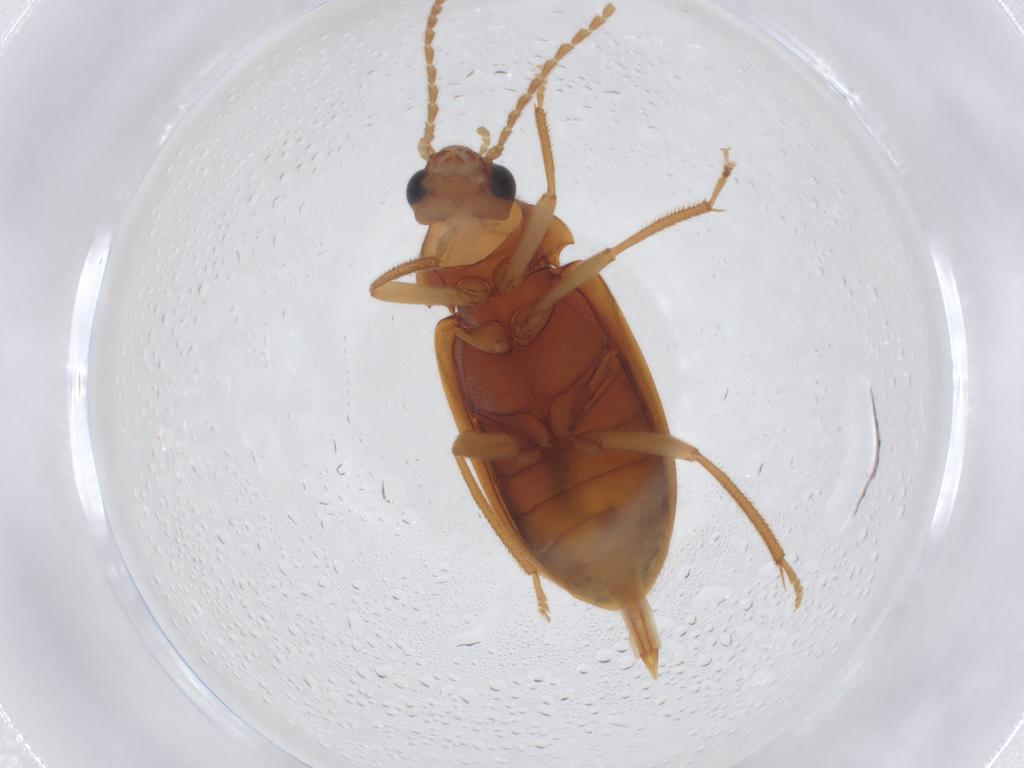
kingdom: Animalia
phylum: Arthropoda
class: Insecta
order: Coleoptera
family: Ptilodactylidae
